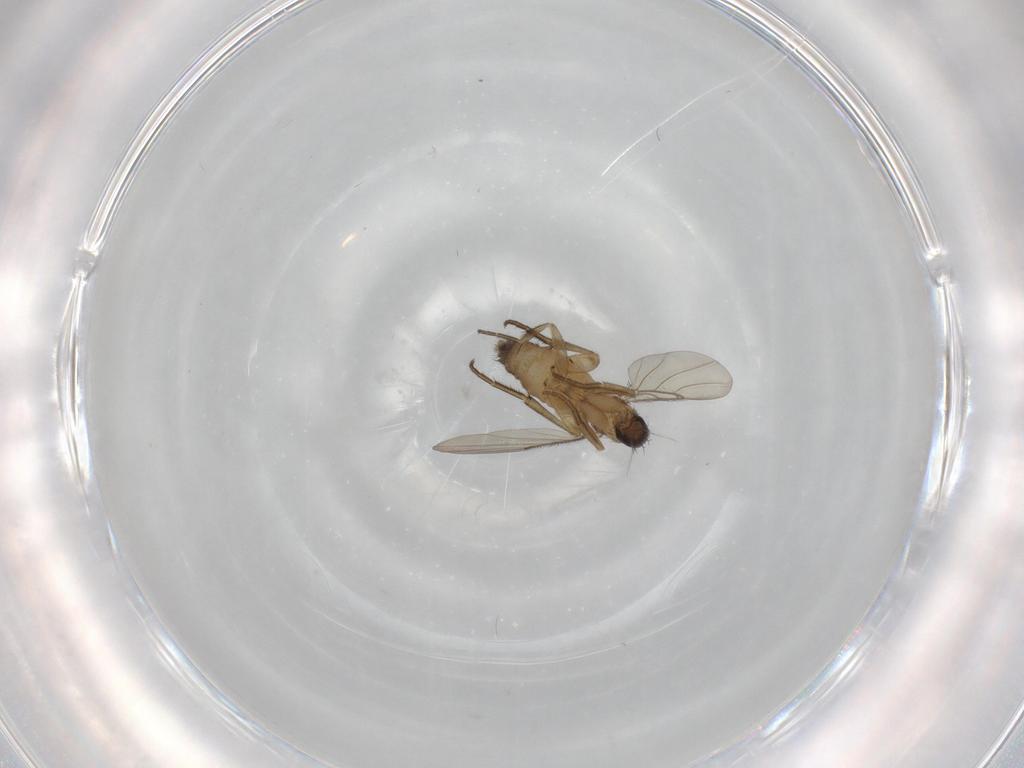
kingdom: Animalia
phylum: Arthropoda
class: Insecta
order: Diptera
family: Phoridae
